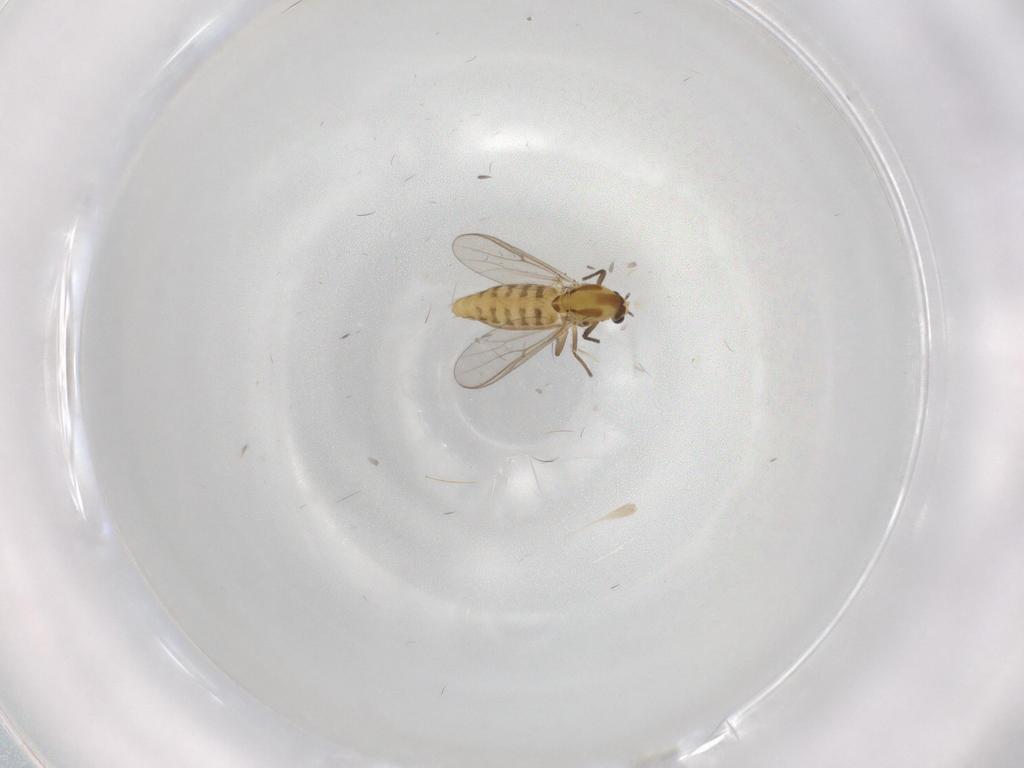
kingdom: Animalia
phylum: Arthropoda
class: Insecta
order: Diptera
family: Chironomidae
